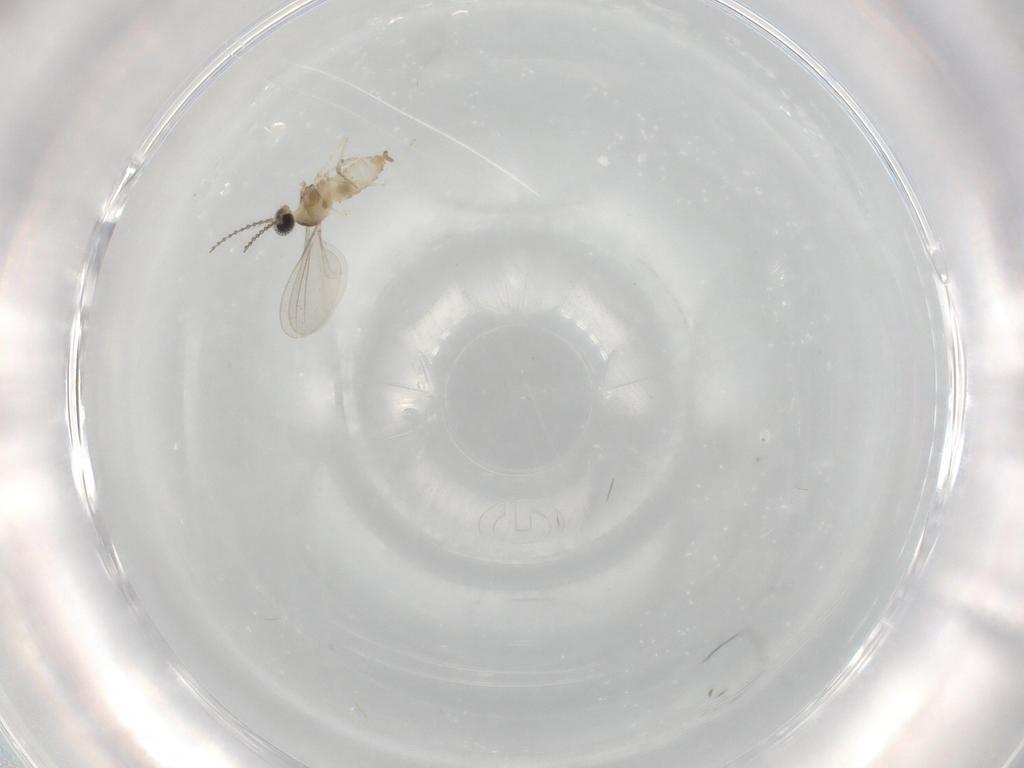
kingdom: Animalia
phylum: Arthropoda
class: Insecta
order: Diptera
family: Cecidomyiidae
